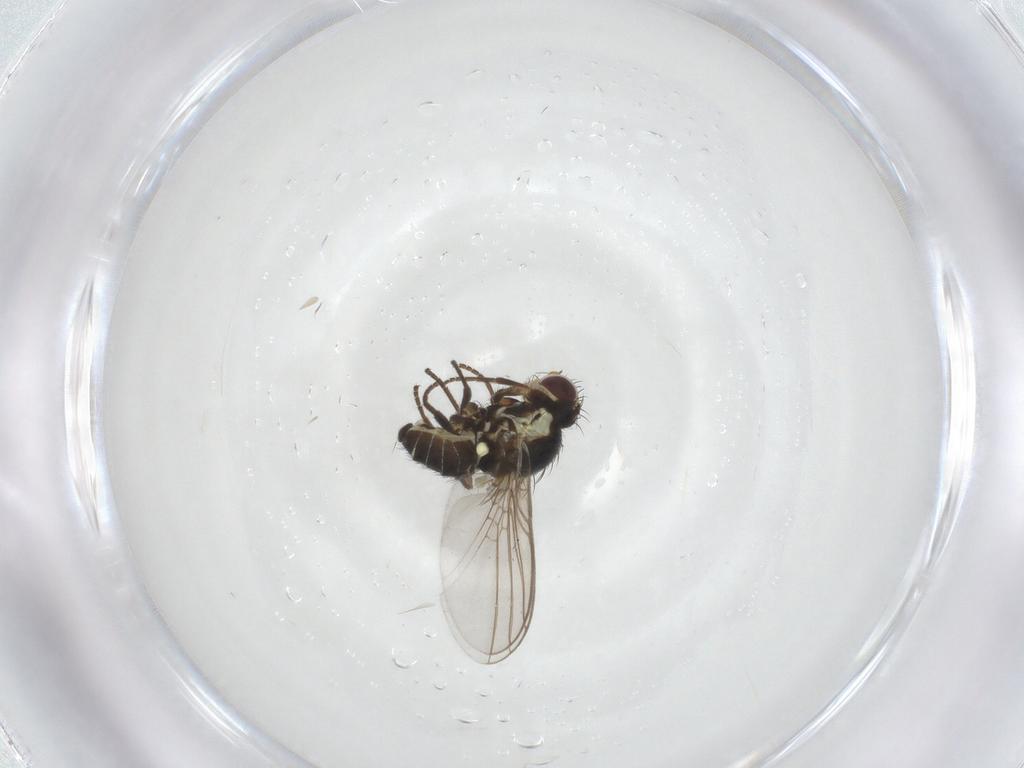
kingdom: Animalia
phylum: Arthropoda
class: Insecta
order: Diptera
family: Agromyzidae
